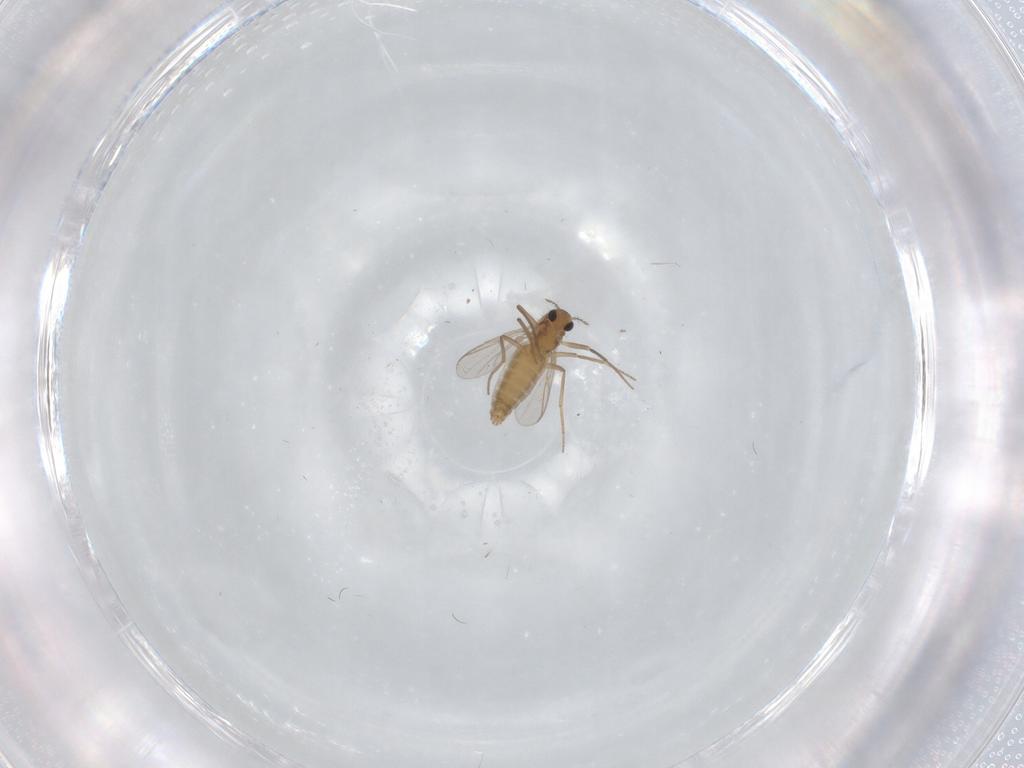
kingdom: Animalia
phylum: Arthropoda
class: Insecta
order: Diptera
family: Chironomidae
